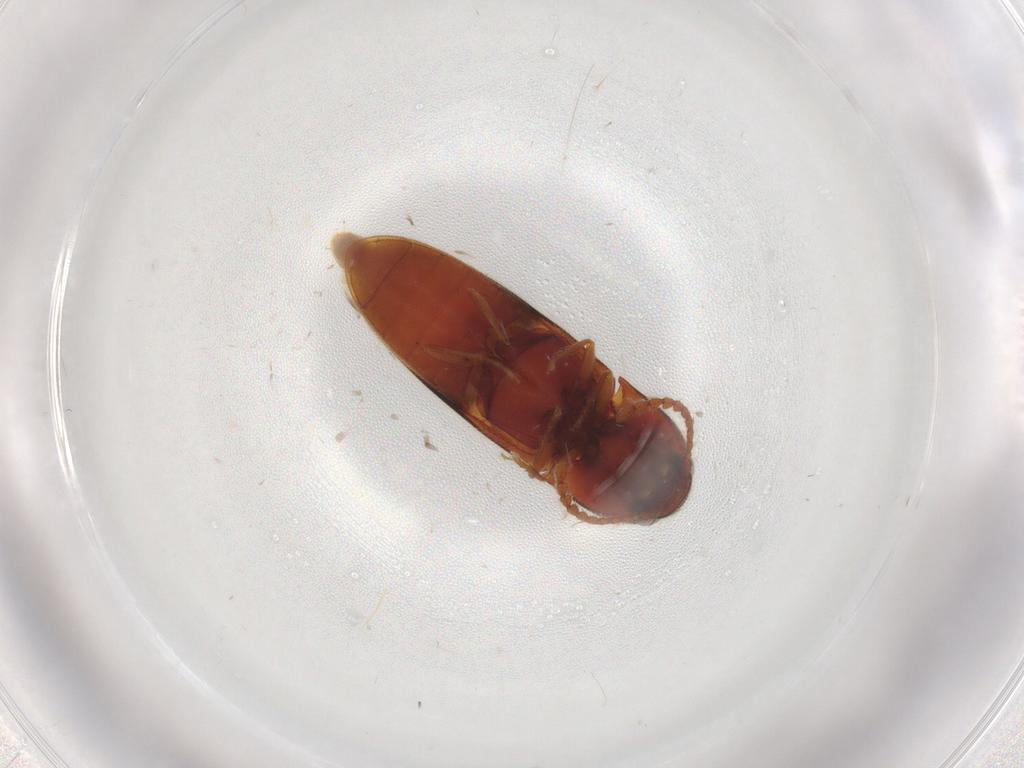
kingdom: Animalia
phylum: Arthropoda
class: Insecta
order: Coleoptera
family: Elateridae
